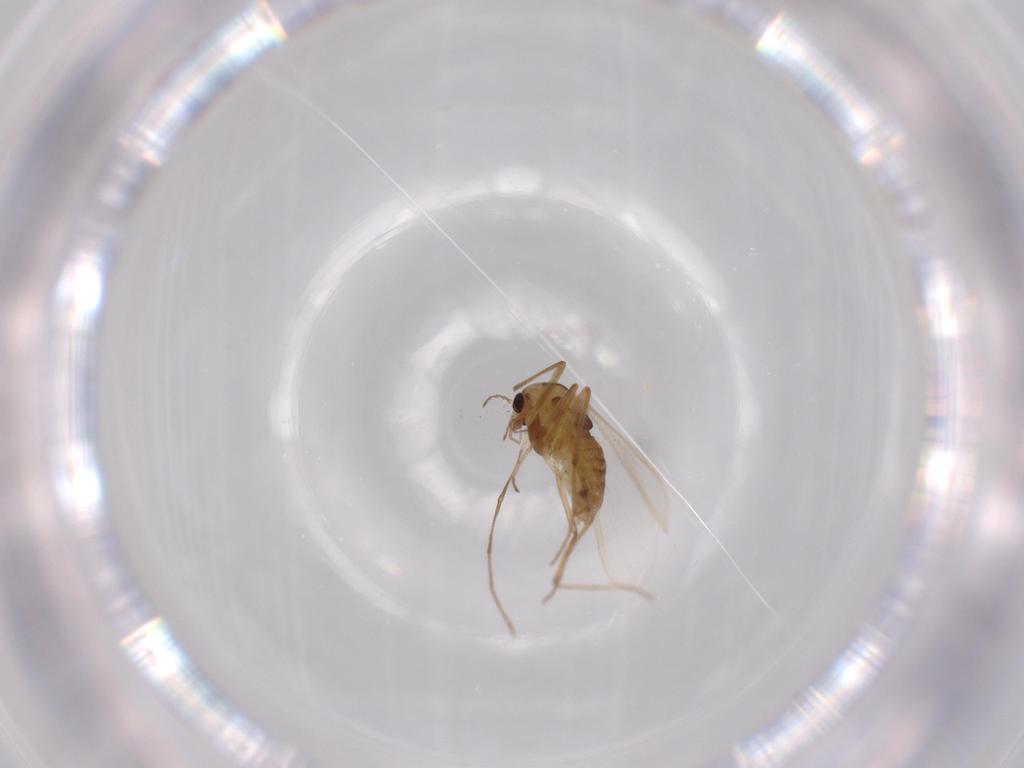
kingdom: Animalia
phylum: Arthropoda
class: Insecta
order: Diptera
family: Chironomidae
